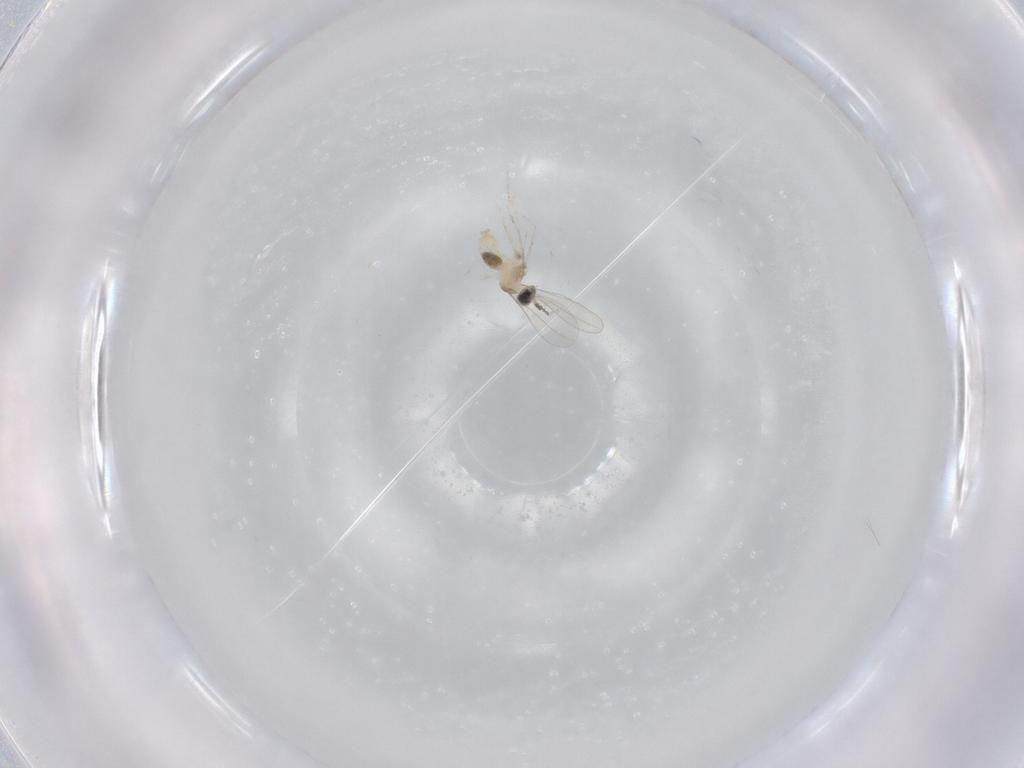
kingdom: Animalia
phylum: Arthropoda
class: Insecta
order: Diptera
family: Cecidomyiidae
